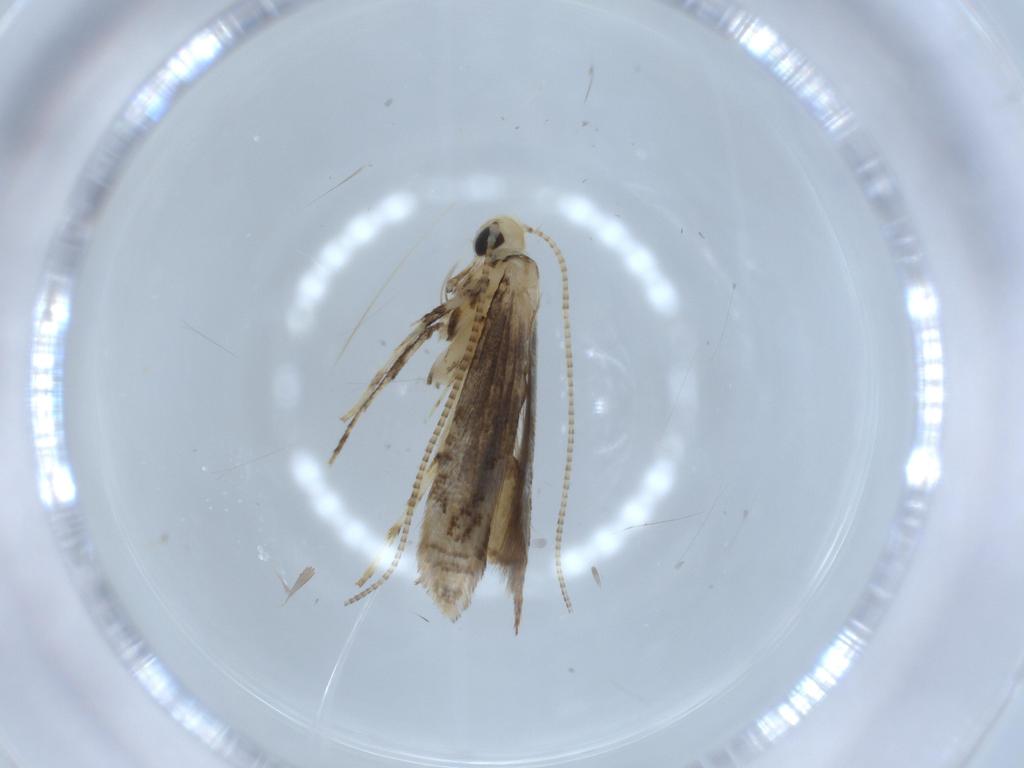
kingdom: Animalia
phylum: Arthropoda
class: Insecta
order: Lepidoptera
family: Gracillariidae
